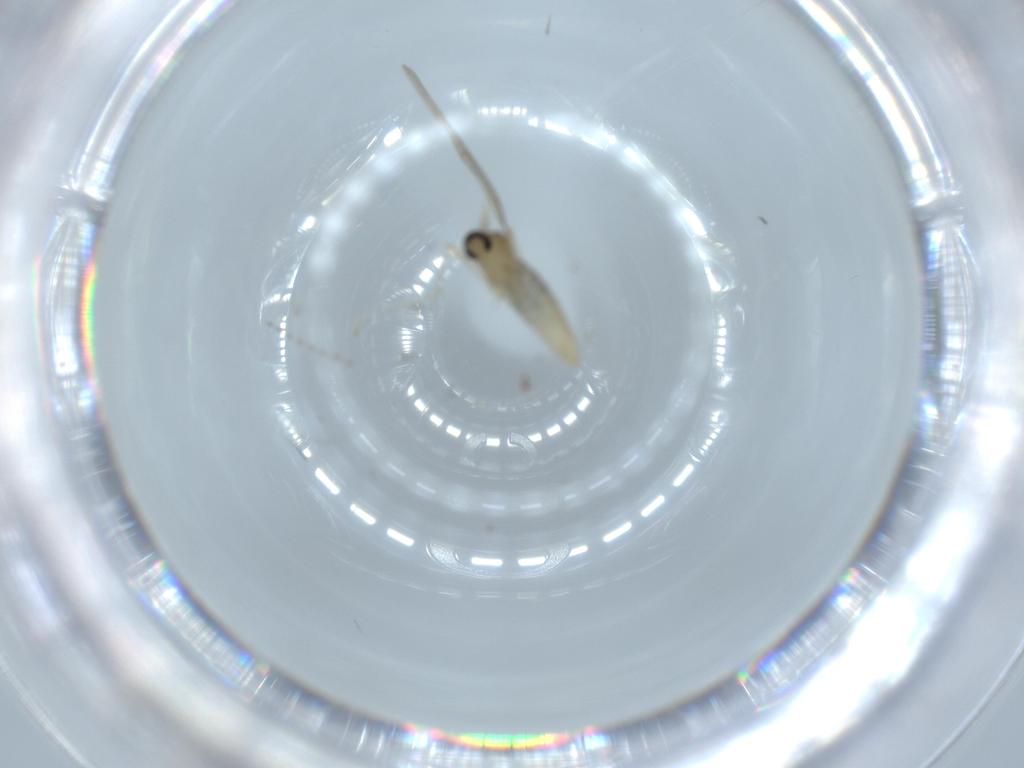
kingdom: Animalia
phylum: Arthropoda
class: Insecta
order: Diptera
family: Cecidomyiidae
